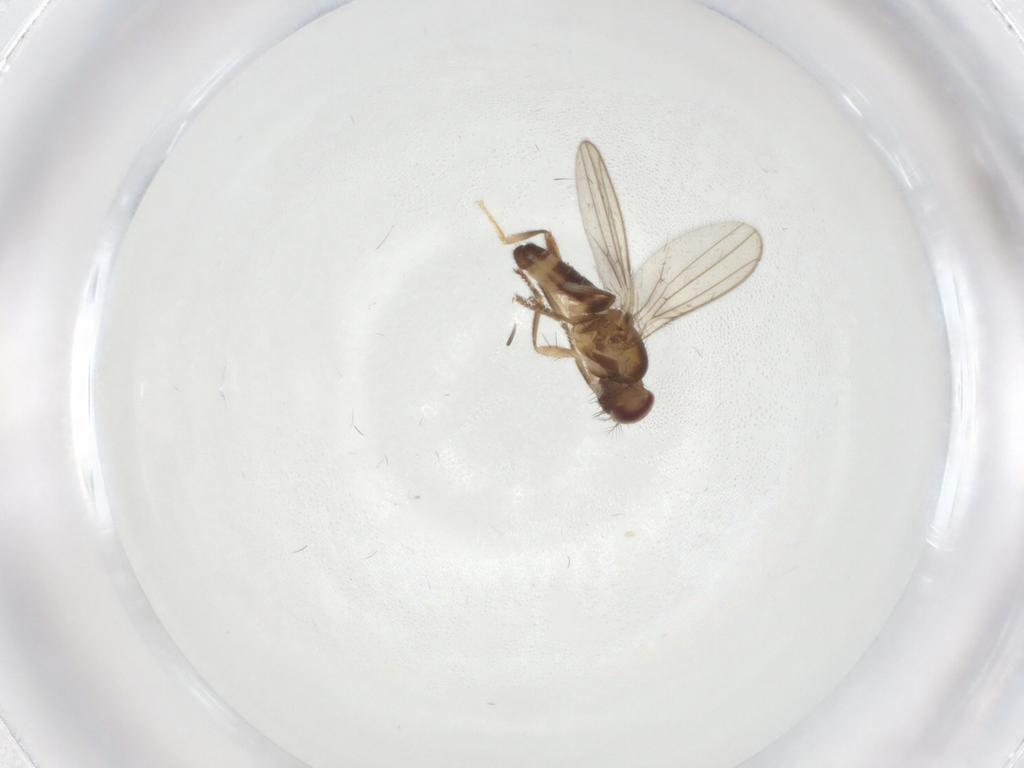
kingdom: Animalia
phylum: Arthropoda
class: Insecta
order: Diptera
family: Periscelididae
